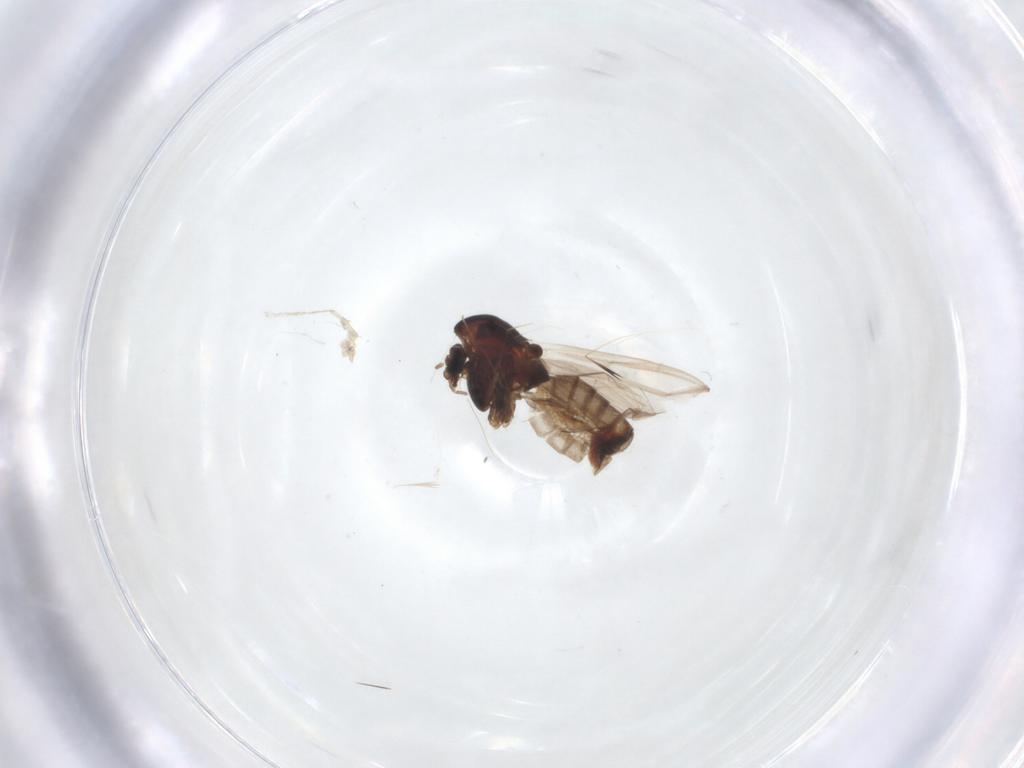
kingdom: Animalia
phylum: Arthropoda
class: Insecta
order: Diptera
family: Chironomidae
